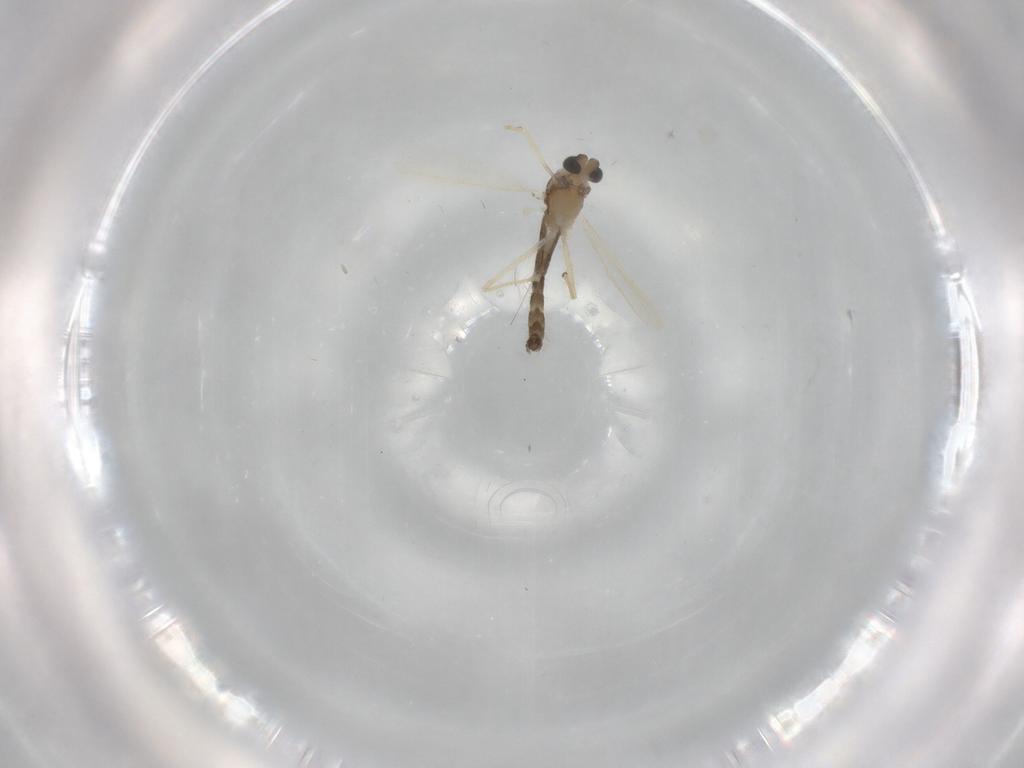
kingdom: Animalia
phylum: Arthropoda
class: Insecta
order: Diptera
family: Chironomidae
